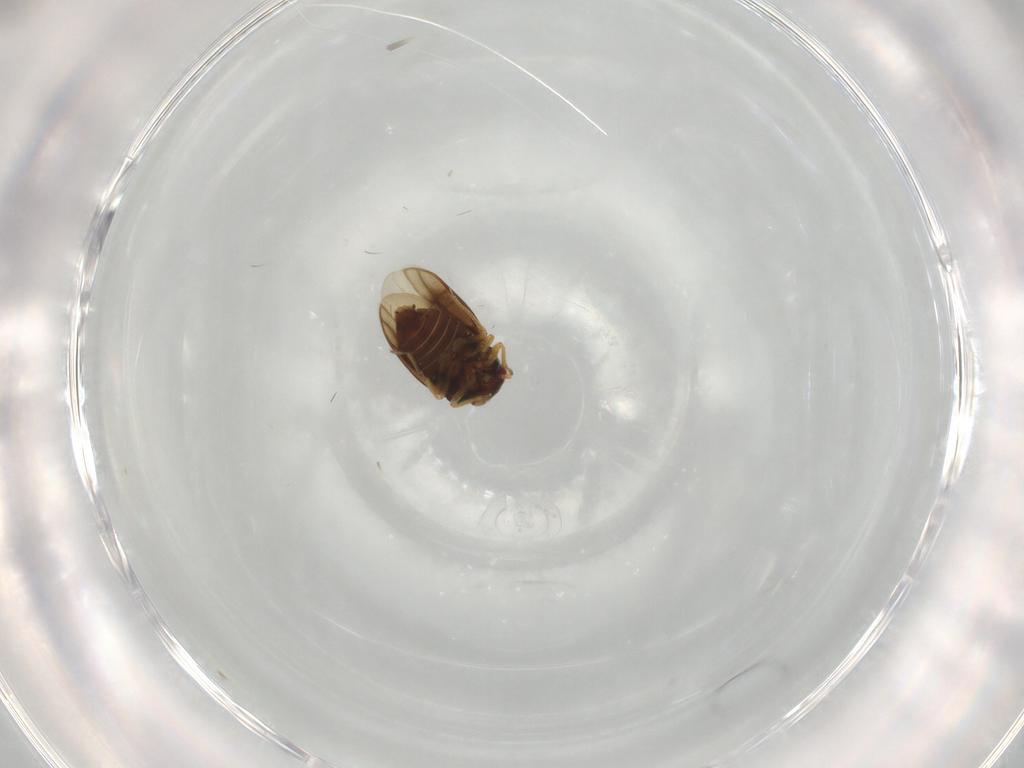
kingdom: Animalia
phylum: Arthropoda
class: Insecta
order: Hemiptera
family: Schizopteridae
